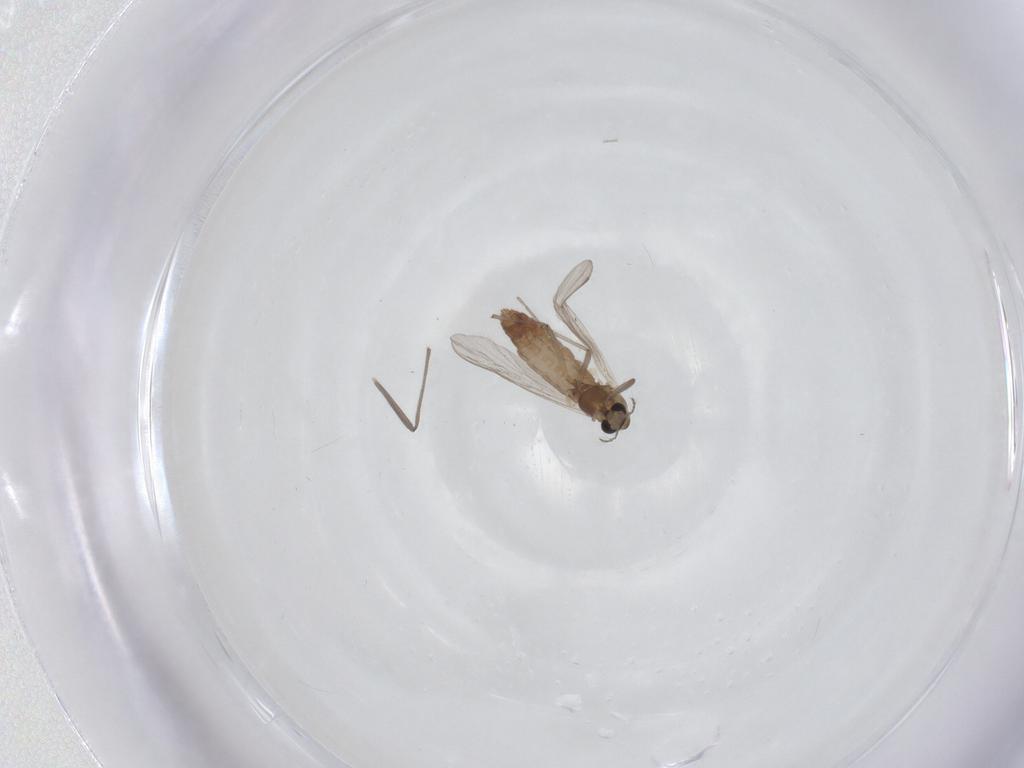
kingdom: Animalia
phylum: Arthropoda
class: Insecta
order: Diptera
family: Chironomidae
